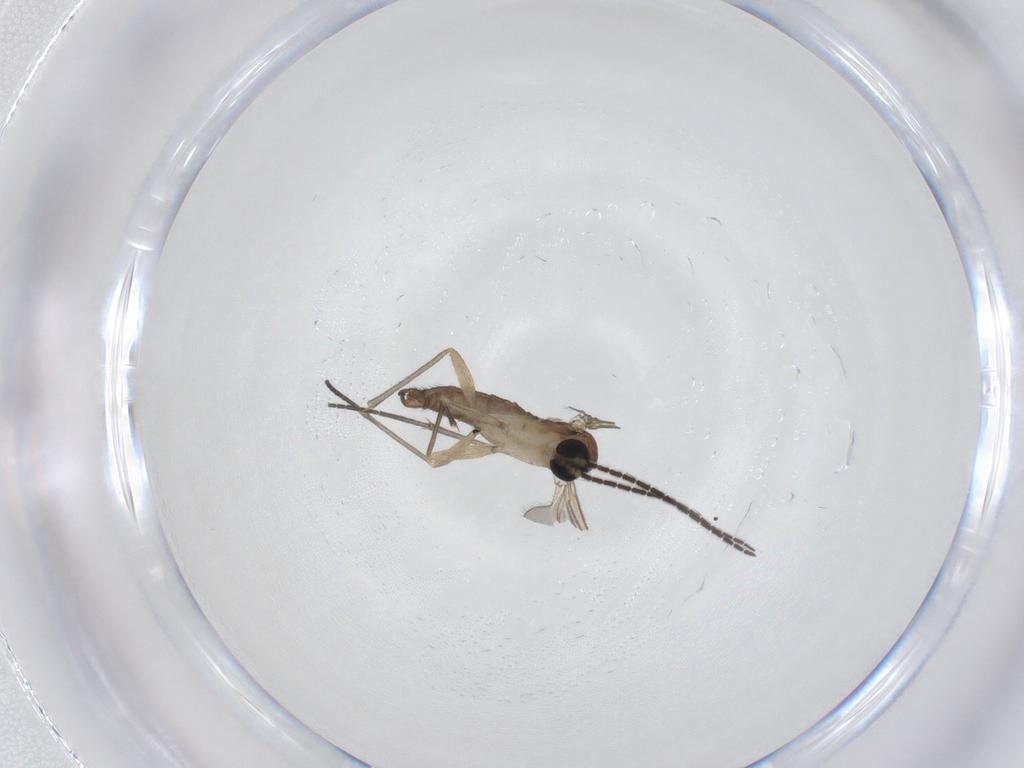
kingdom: Animalia
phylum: Arthropoda
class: Insecta
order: Diptera
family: Sciaridae
